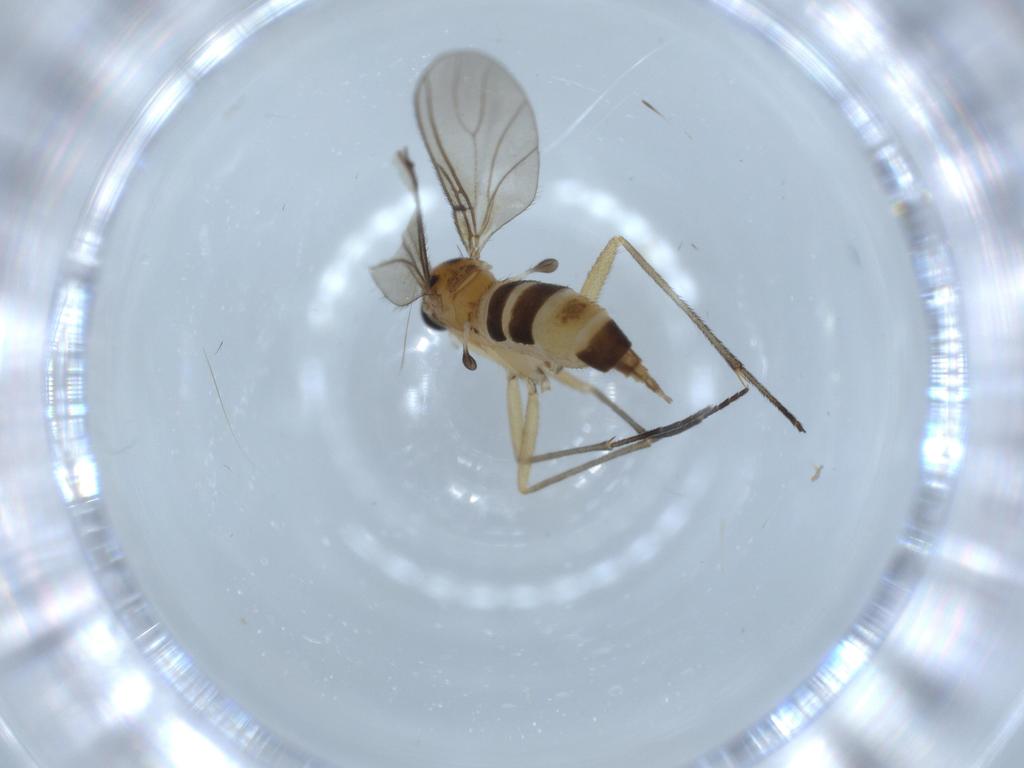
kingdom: Animalia
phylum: Arthropoda
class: Insecta
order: Diptera
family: Sciaridae
